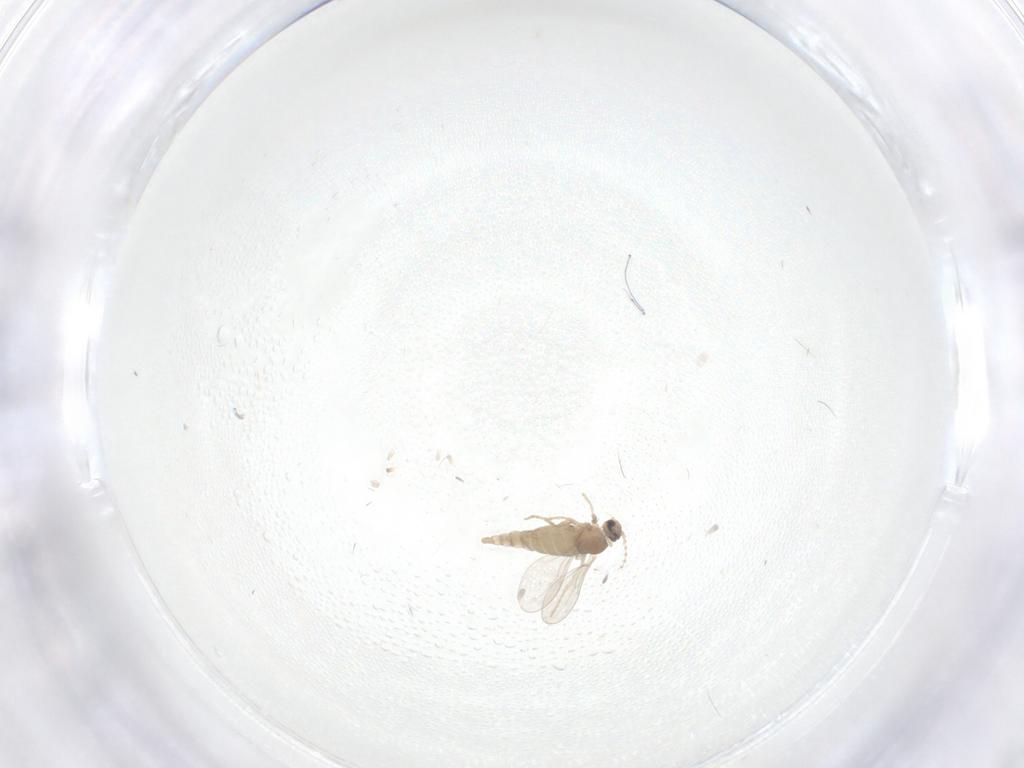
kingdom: Animalia
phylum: Arthropoda
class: Insecta
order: Diptera
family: Cecidomyiidae
